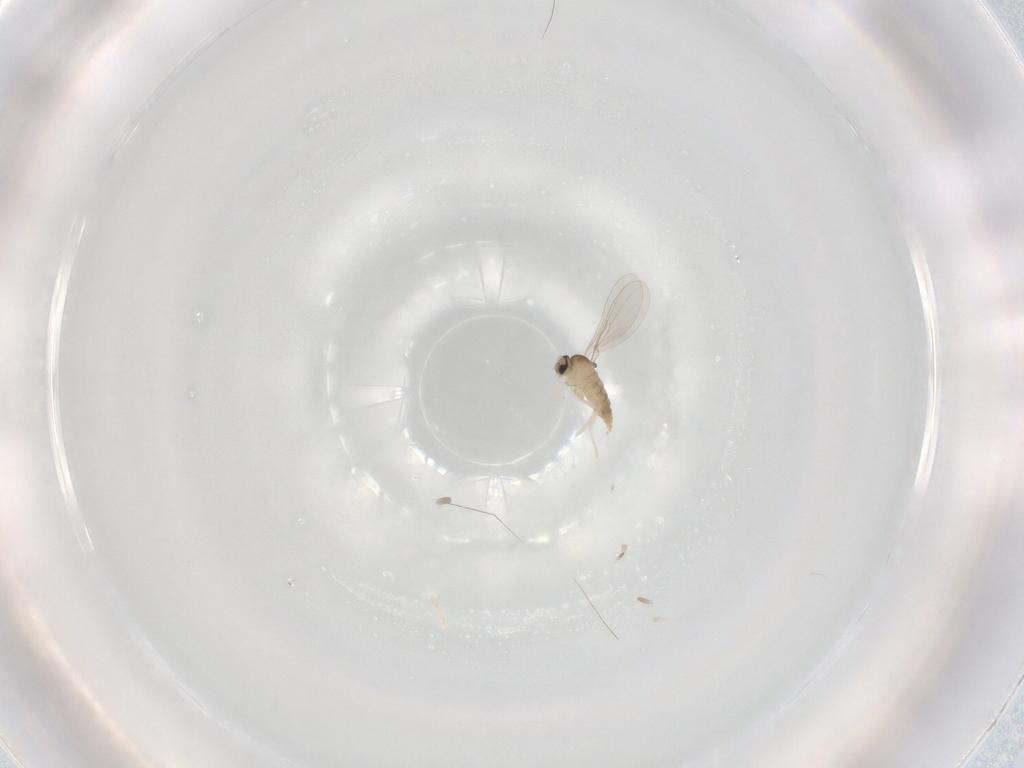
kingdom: Animalia
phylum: Arthropoda
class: Insecta
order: Diptera
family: Cecidomyiidae
